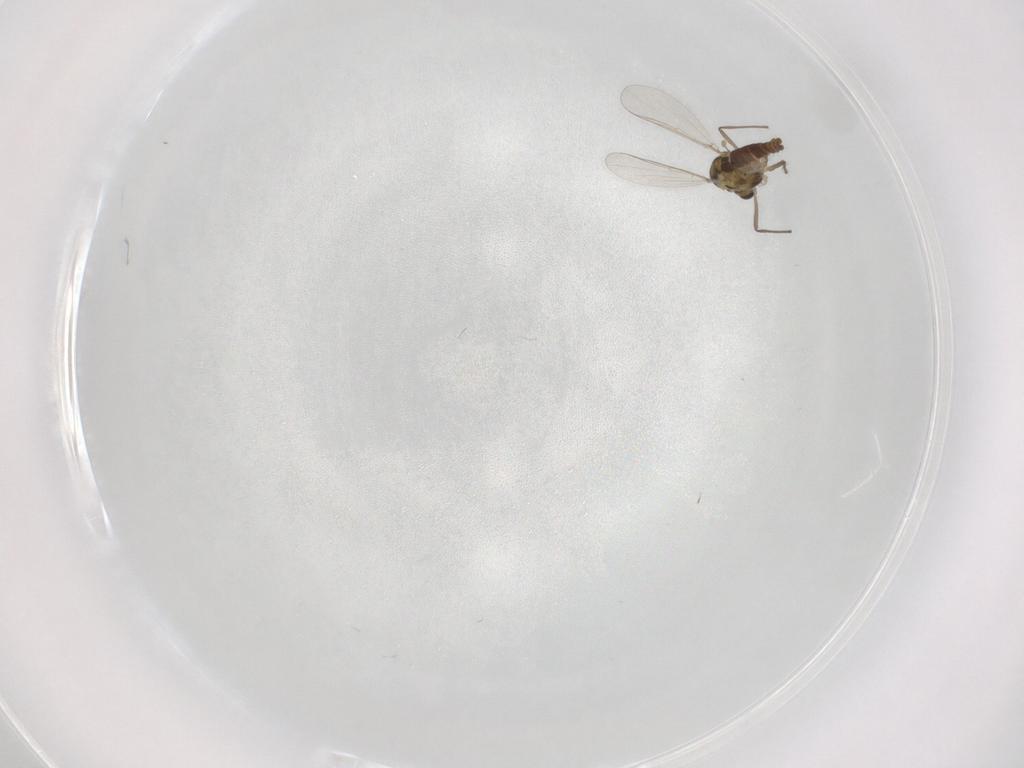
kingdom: Animalia
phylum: Arthropoda
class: Insecta
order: Diptera
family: Chironomidae
